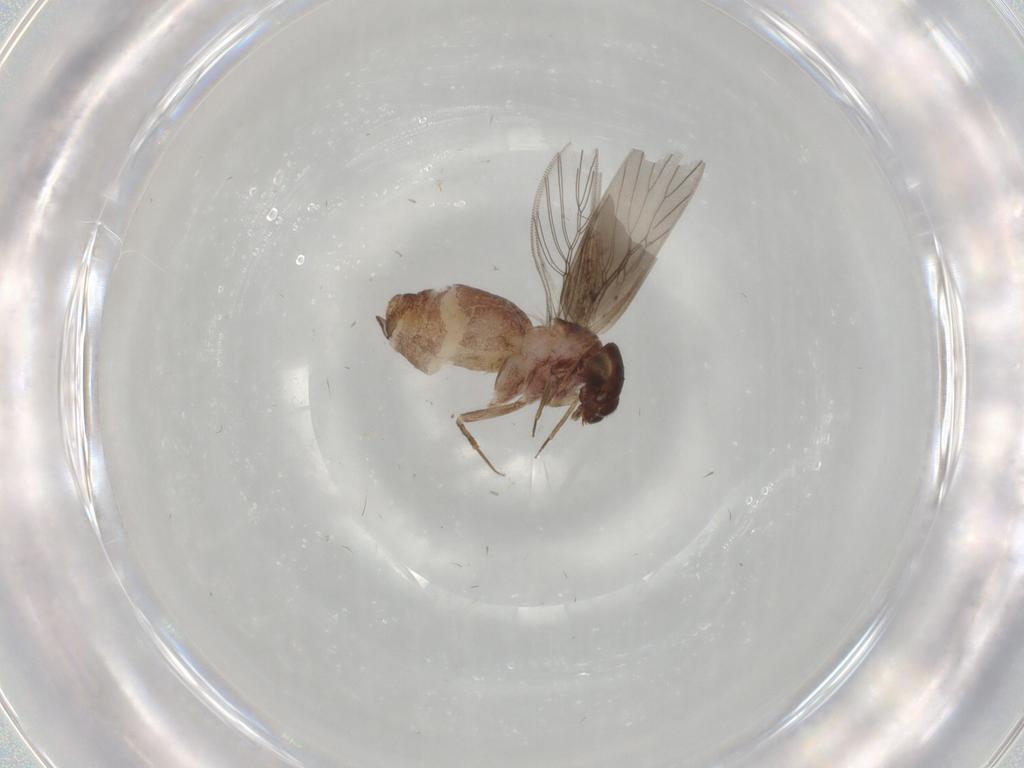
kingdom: Animalia
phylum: Arthropoda
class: Insecta
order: Psocodea
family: Lepidopsocidae
